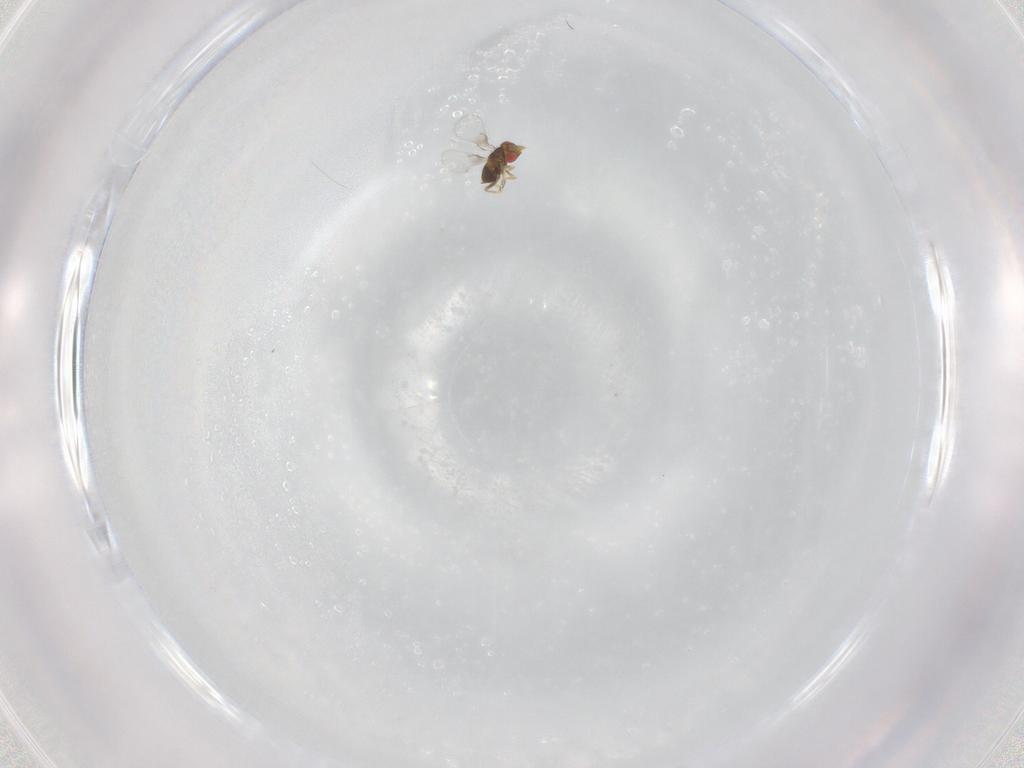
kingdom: Animalia
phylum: Arthropoda
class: Insecta
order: Hymenoptera
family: Trichogrammatidae
